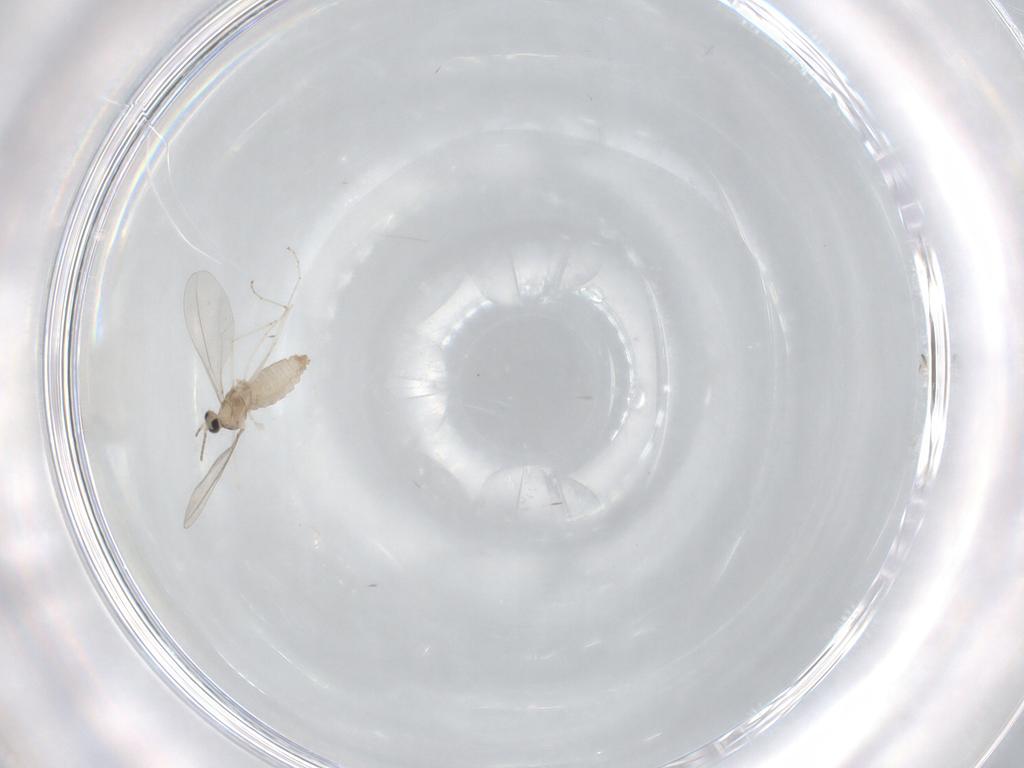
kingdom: Animalia
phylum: Arthropoda
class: Insecta
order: Diptera
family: Cecidomyiidae
